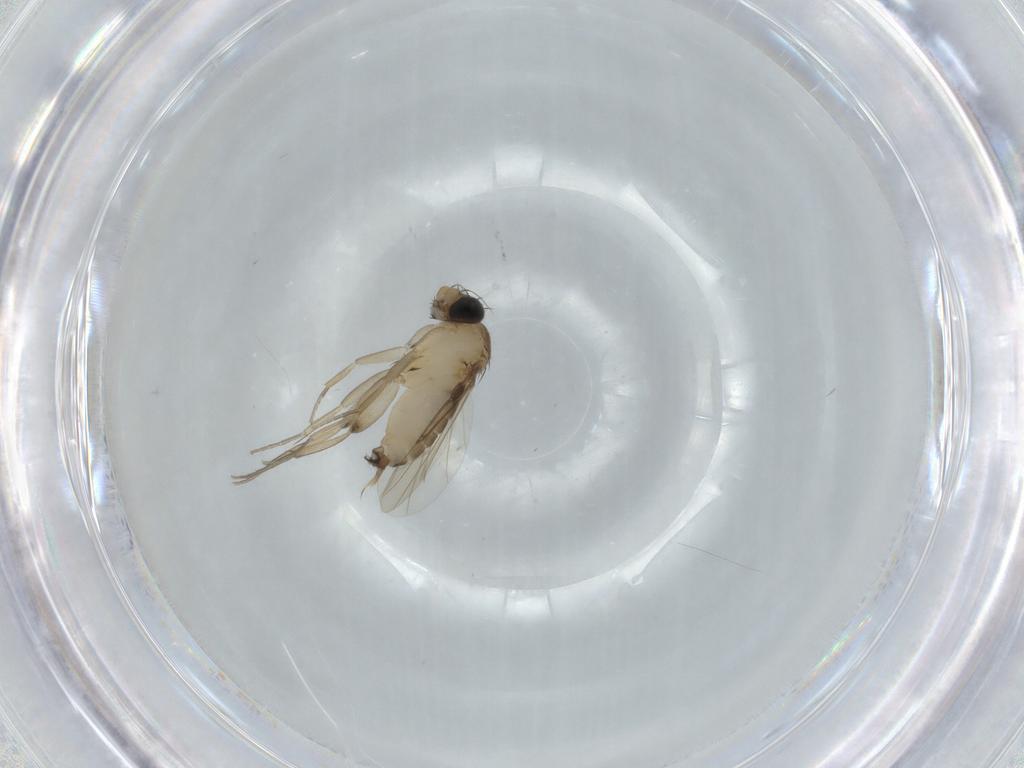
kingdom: Animalia
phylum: Arthropoda
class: Insecta
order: Diptera
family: Phoridae
